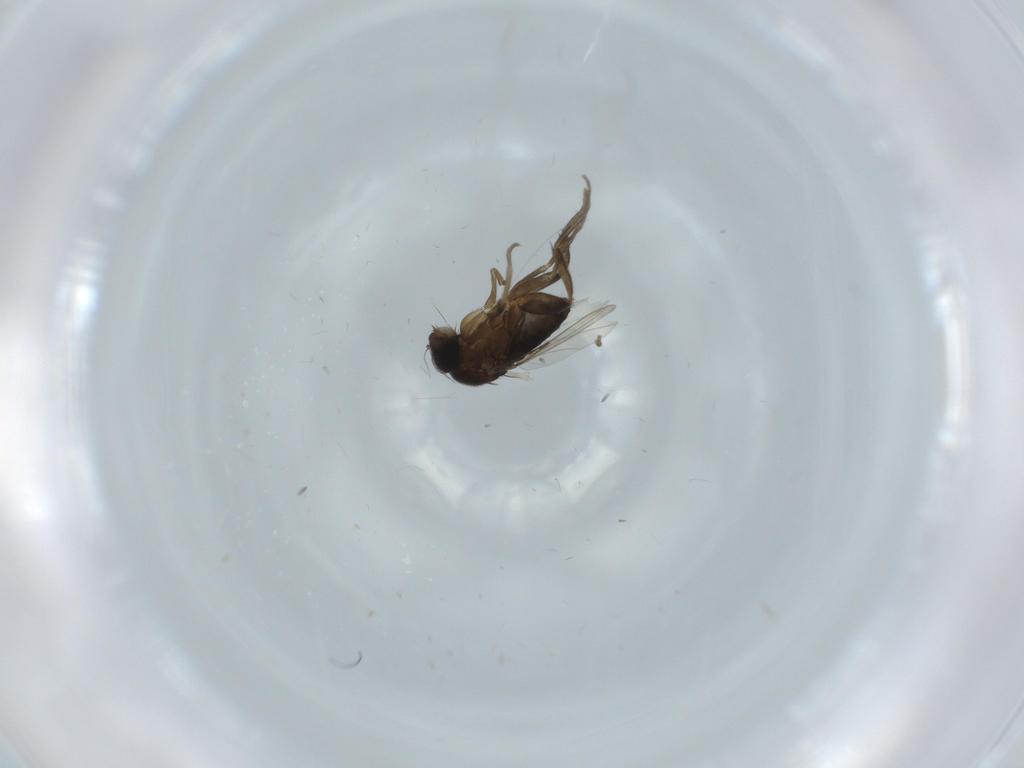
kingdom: Animalia
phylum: Arthropoda
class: Insecta
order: Diptera
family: Phoridae
